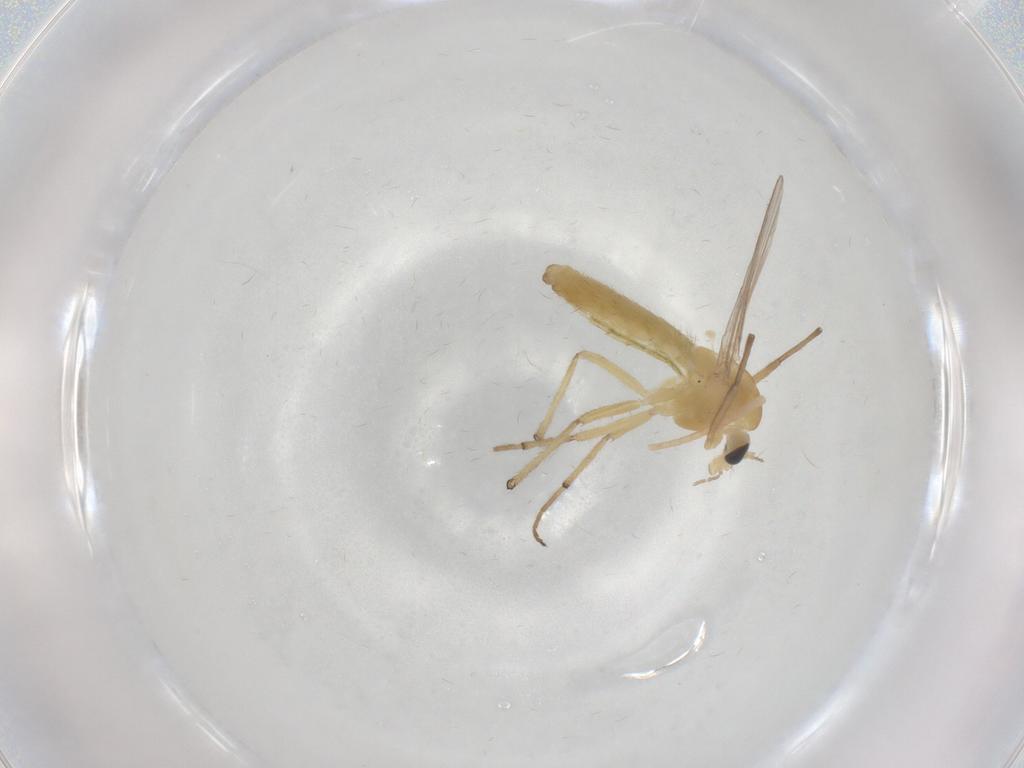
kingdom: Animalia
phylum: Arthropoda
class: Insecta
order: Diptera
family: Chironomidae
